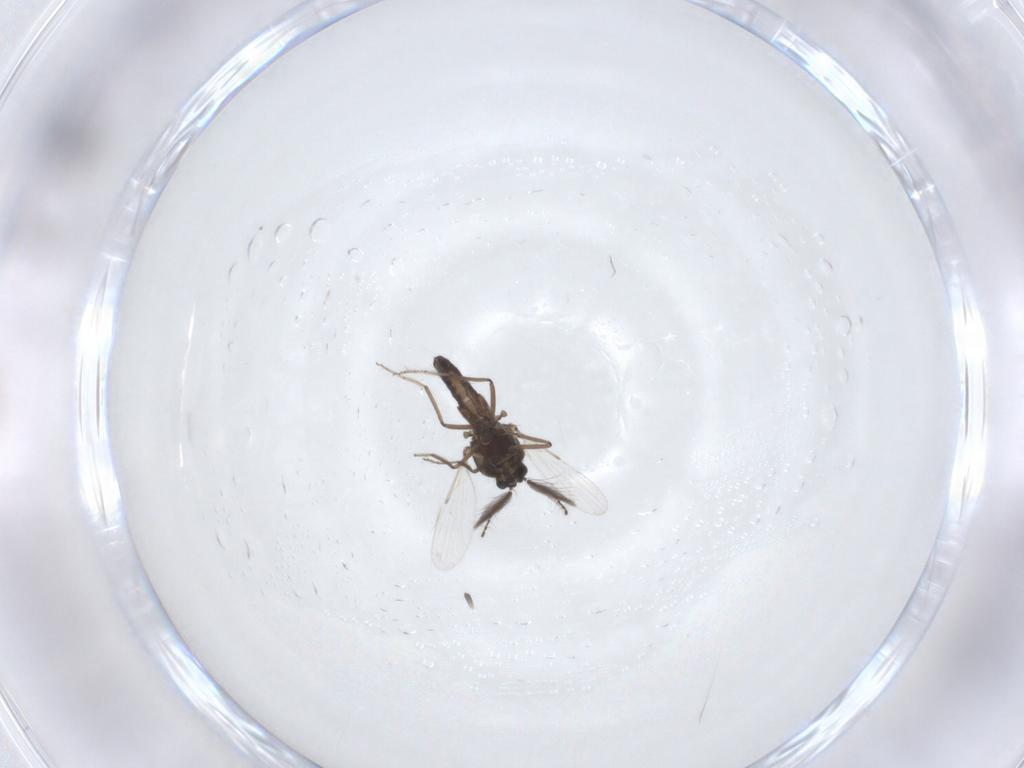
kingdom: Animalia
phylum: Arthropoda
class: Insecta
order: Diptera
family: Ceratopogonidae
